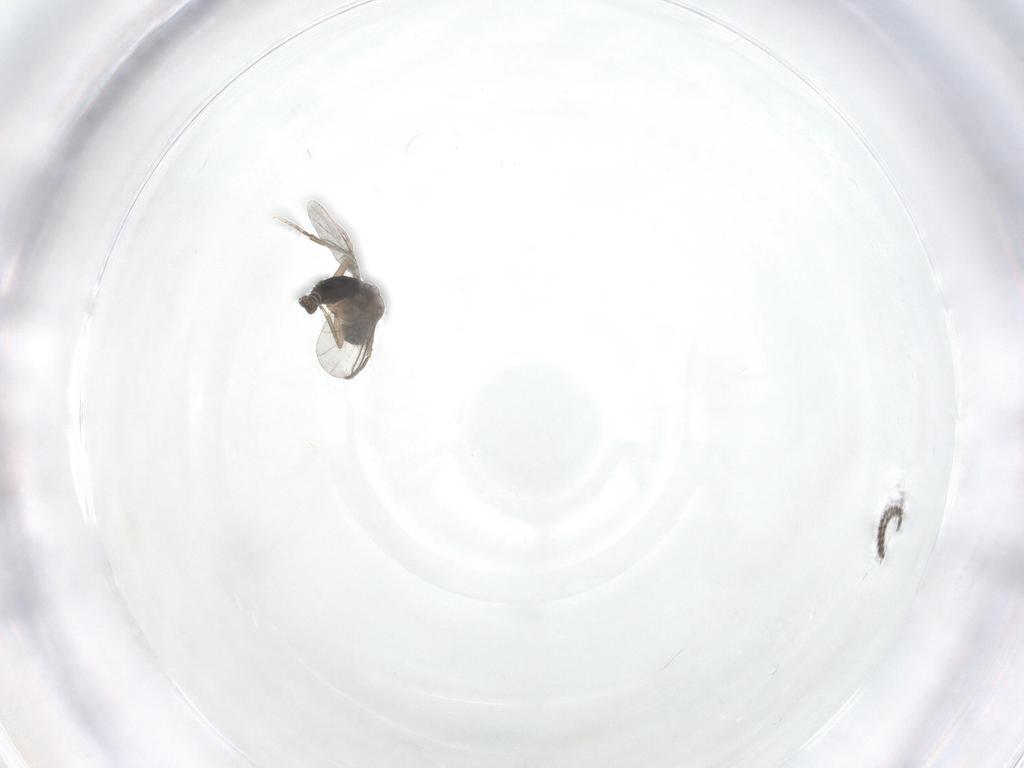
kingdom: Animalia
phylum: Arthropoda
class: Insecta
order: Diptera
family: Sciaridae
